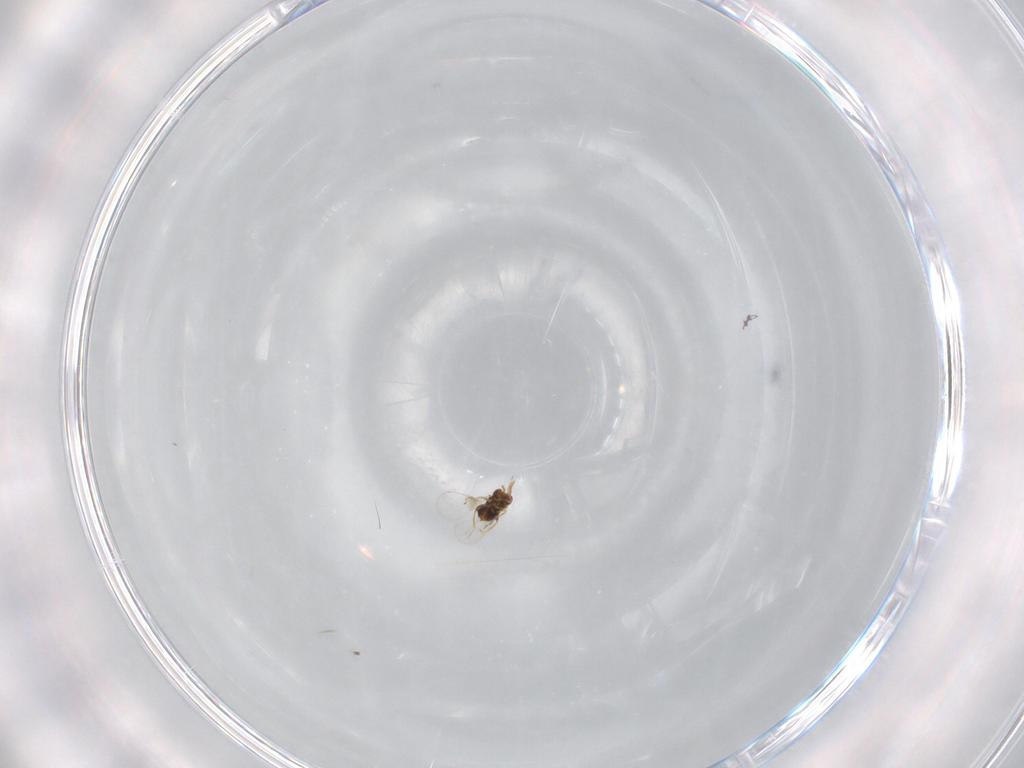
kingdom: Animalia
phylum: Arthropoda
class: Insecta
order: Hymenoptera
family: Trichogrammatidae
